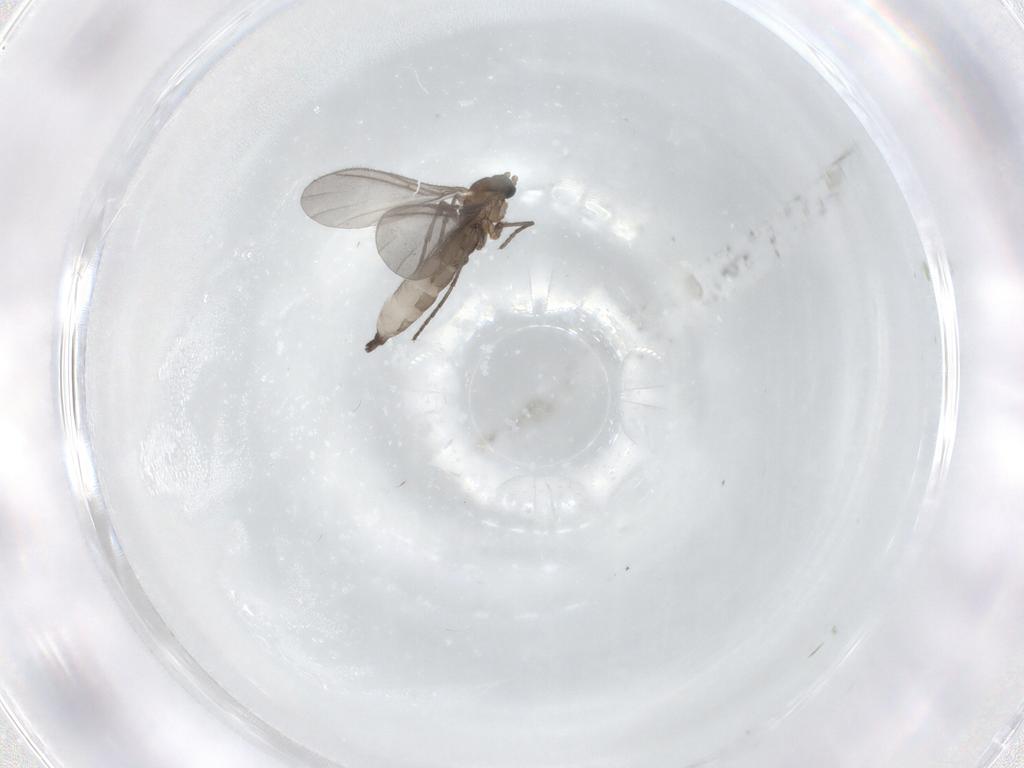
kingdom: Animalia
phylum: Arthropoda
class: Insecta
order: Diptera
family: Sciaridae
